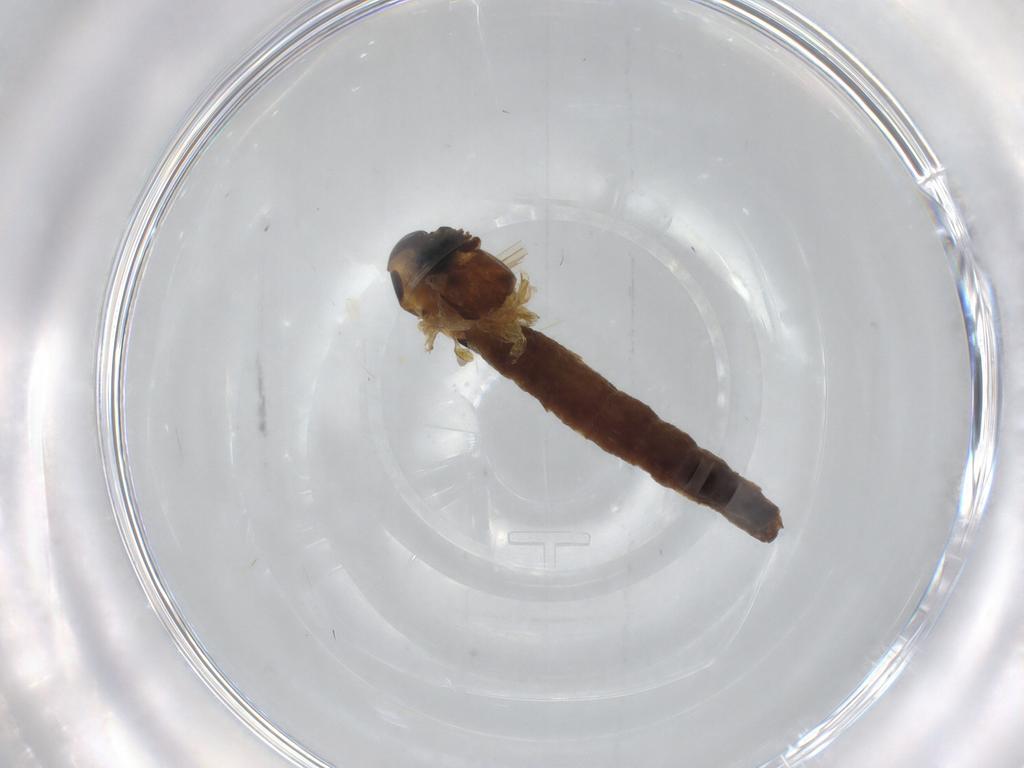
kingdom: Animalia
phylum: Arthropoda
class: Insecta
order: Diptera
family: Chironomidae
